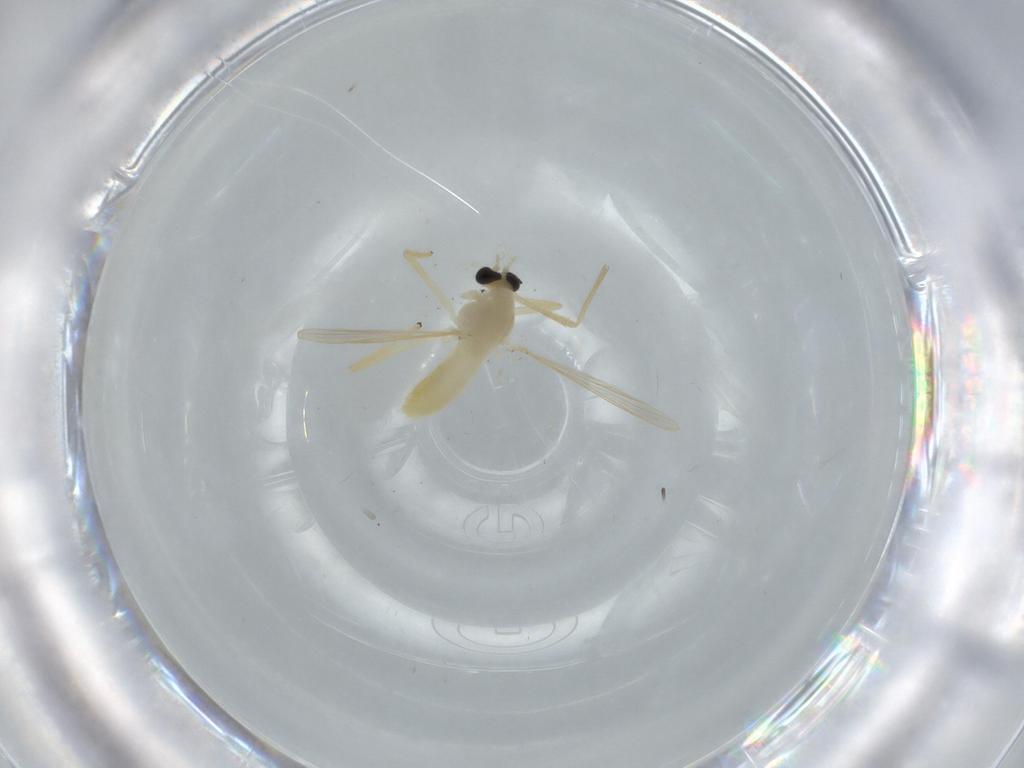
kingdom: Animalia
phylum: Arthropoda
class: Insecta
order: Diptera
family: Chironomidae
